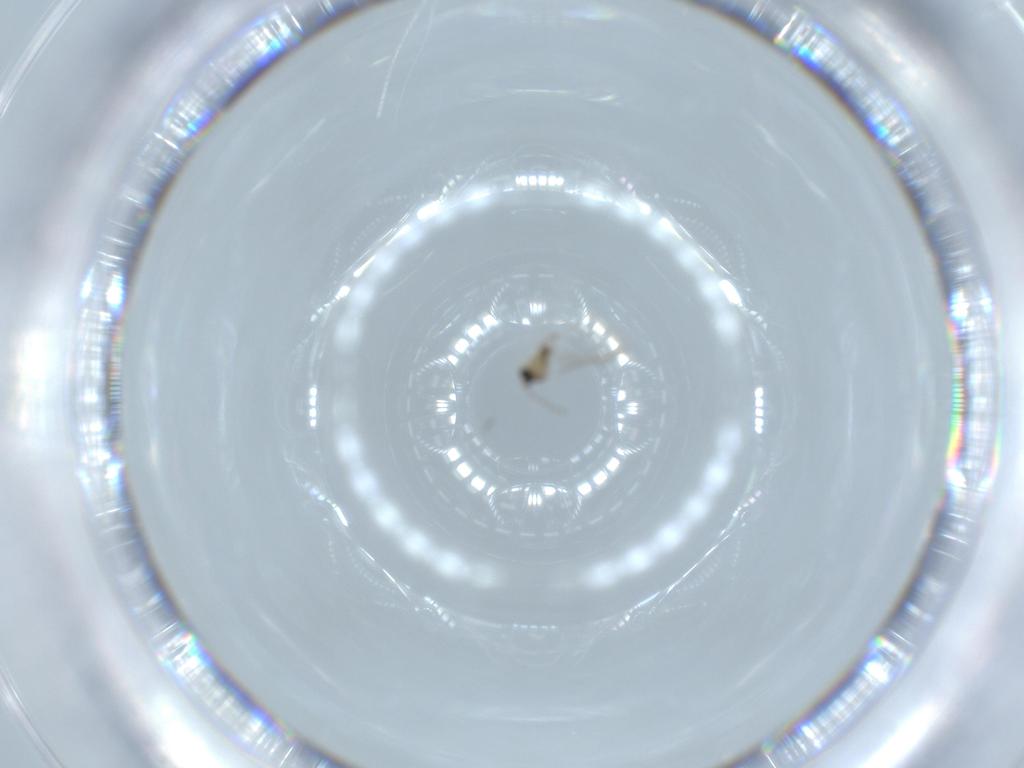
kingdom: Animalia
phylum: Arthropoda
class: Insecta
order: Diptera
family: Cecidomyiidae
